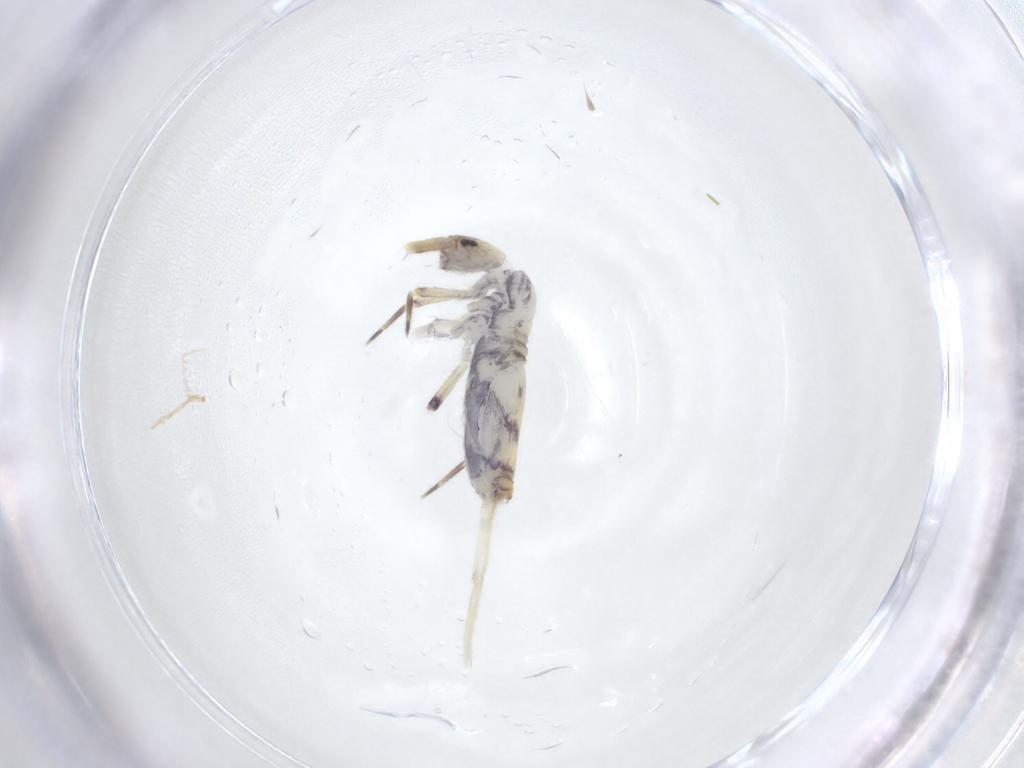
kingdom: Animalia
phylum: Arthropoda
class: Collembola
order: Entomobryomorpha
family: Entomobryidae
